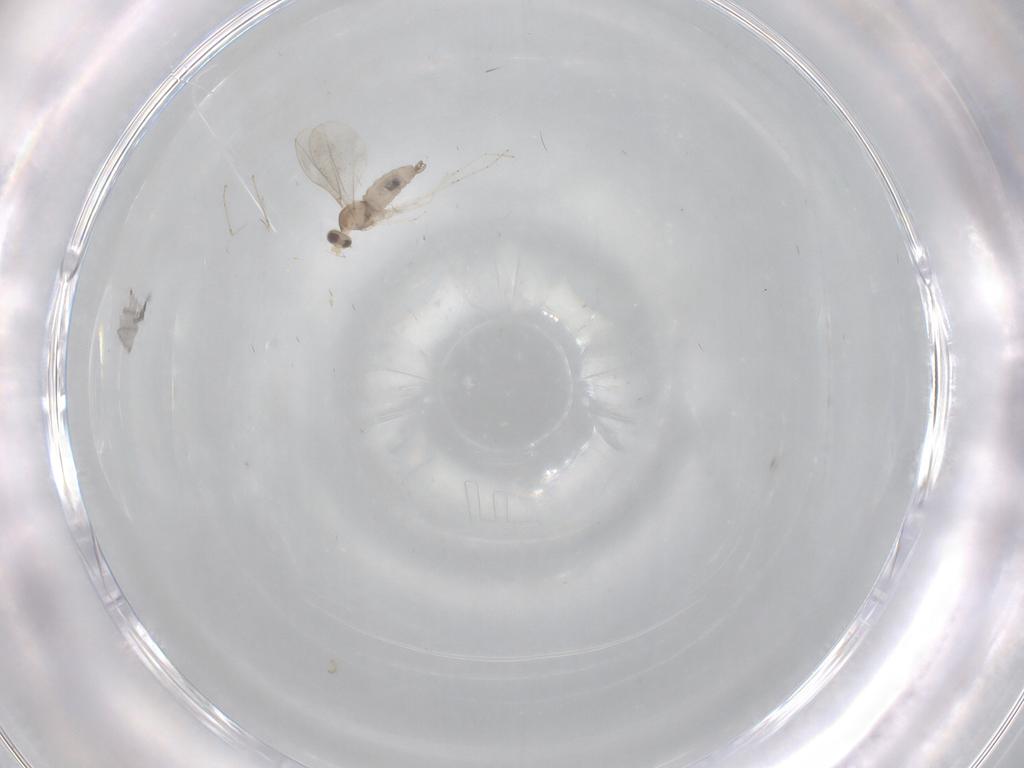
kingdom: Animalia
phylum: Arthropoda
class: Insecta
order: Diptera
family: Cecidomyiidae
